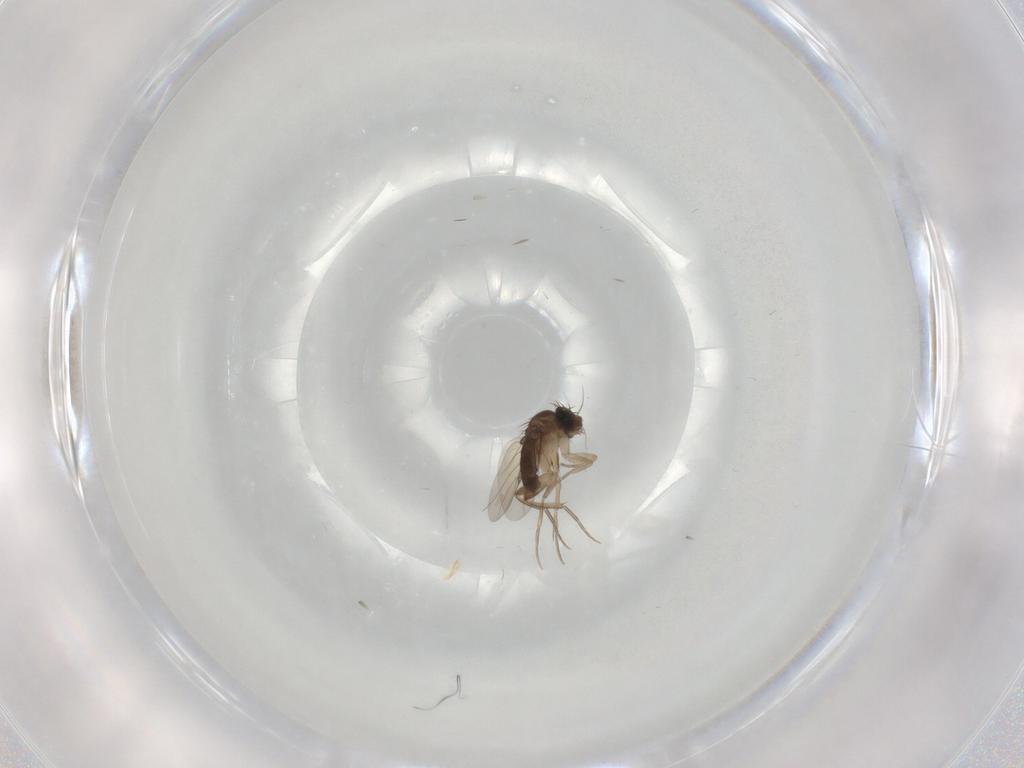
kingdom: Animalia
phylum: Arthropoda
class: Insecta
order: Diptera
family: Phoridae
